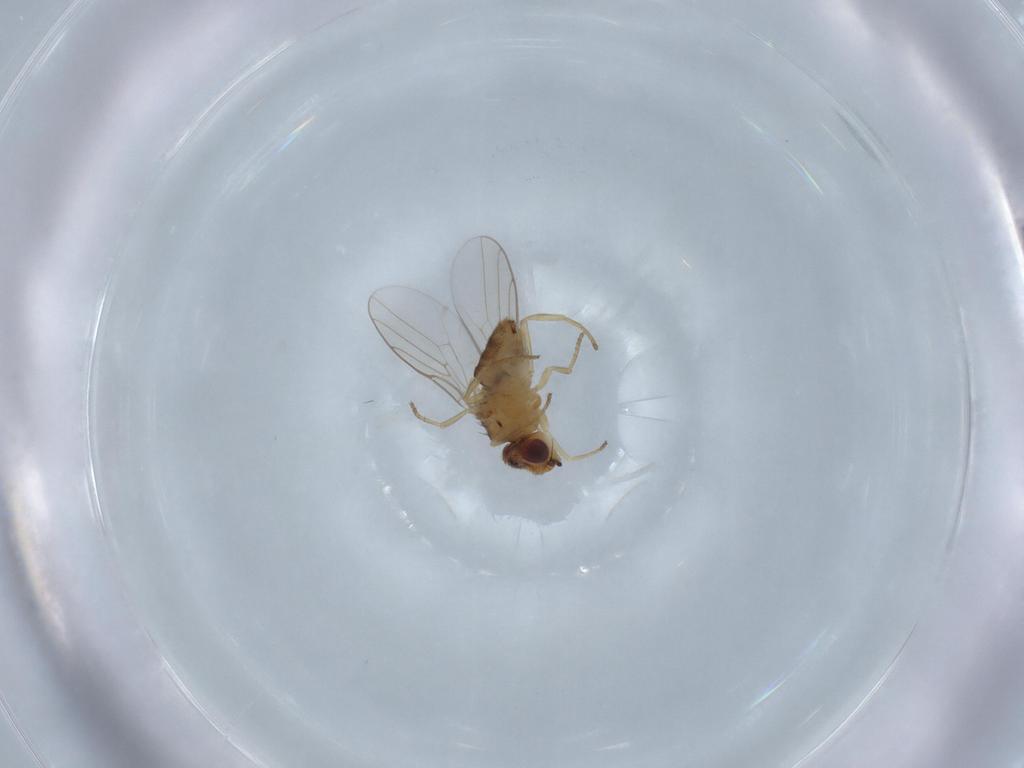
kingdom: Animalia
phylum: Arthropoda
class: Insecta
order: Diptera
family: Chloropidae
